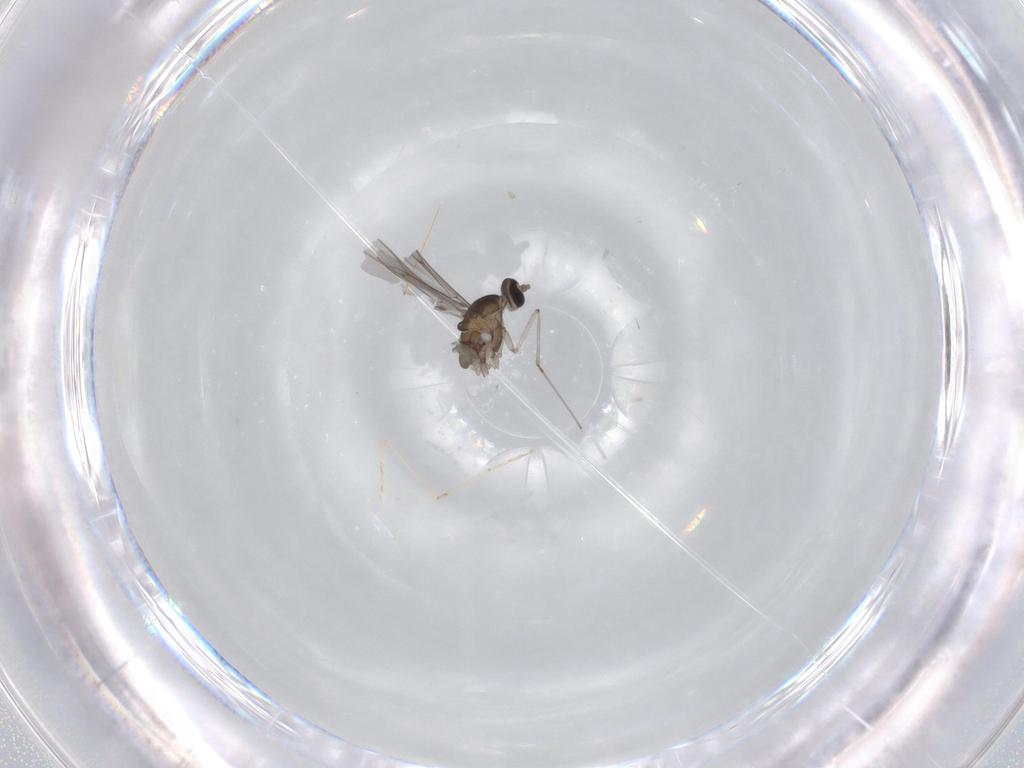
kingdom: Animalia
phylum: Arthropoda
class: Insecta
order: Diptera
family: Cecidomyiidae
